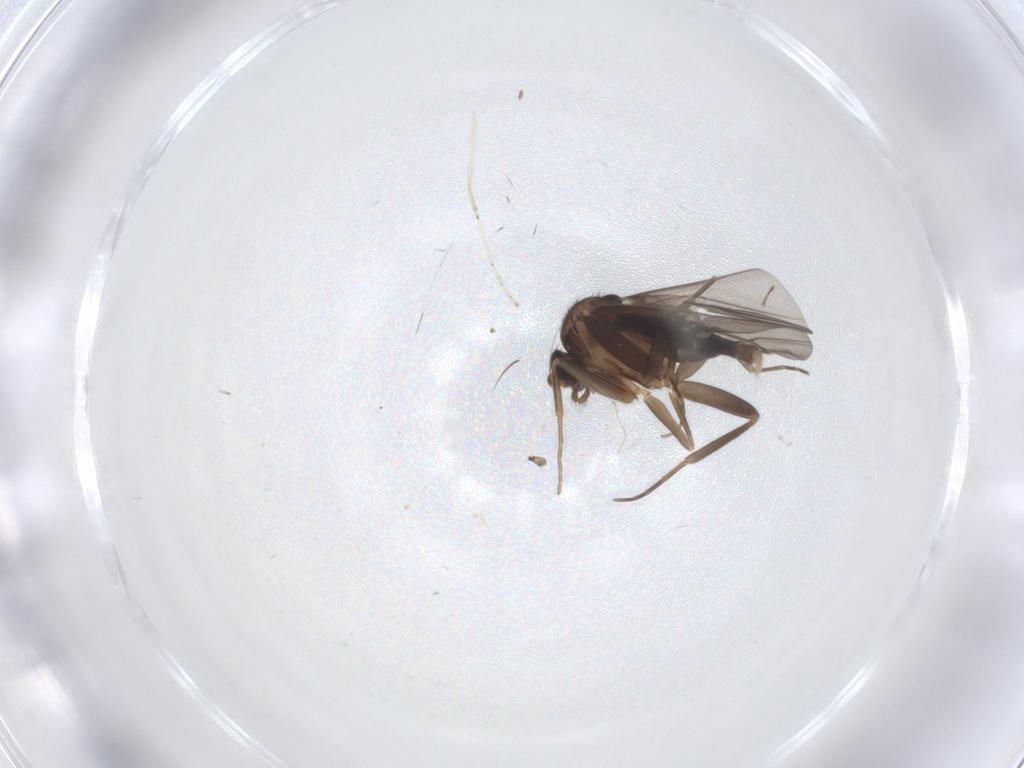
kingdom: Animalia
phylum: Arthropoda
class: Insecta
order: Diptera
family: Cecidomyiidae
